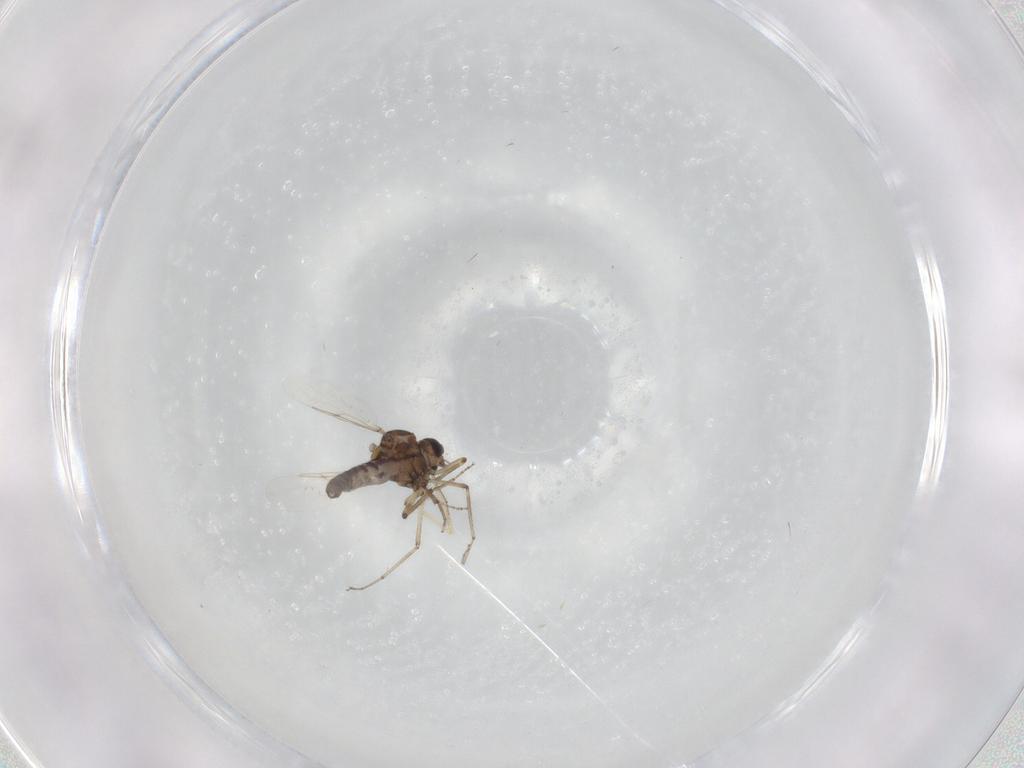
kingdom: Animalia
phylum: Arthropoda
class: Insecta
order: Diptera
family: Ceratopogonidae
